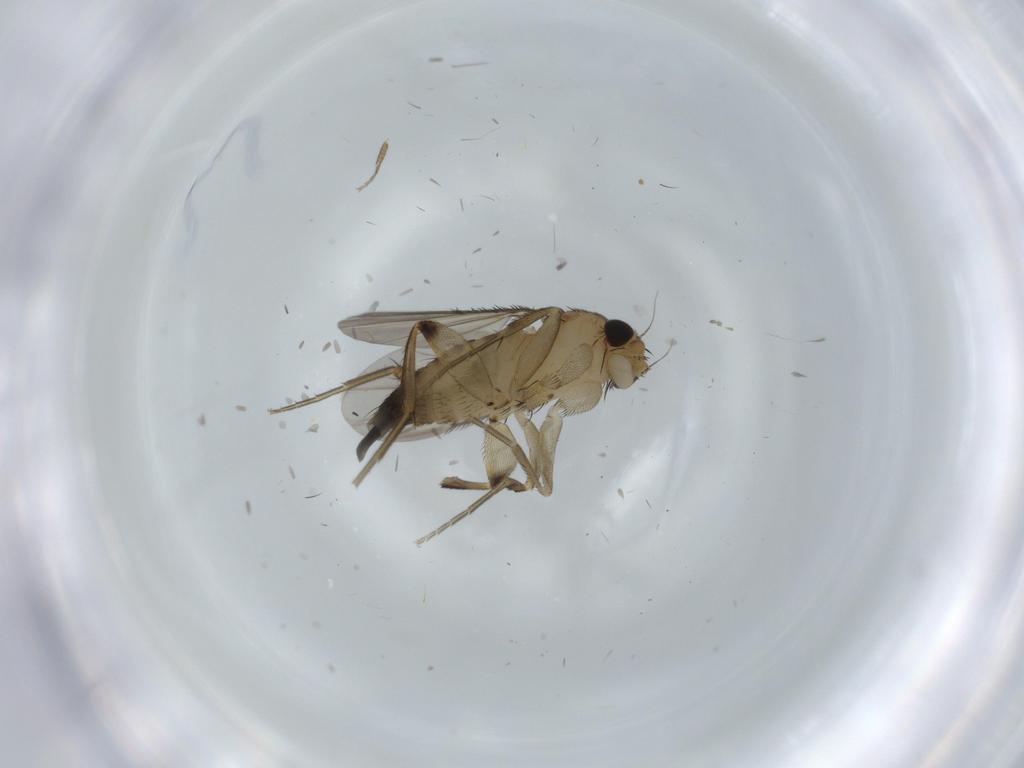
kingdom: Animalia
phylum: Arthropoda
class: Insecta
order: Diptera
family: Phoridae
